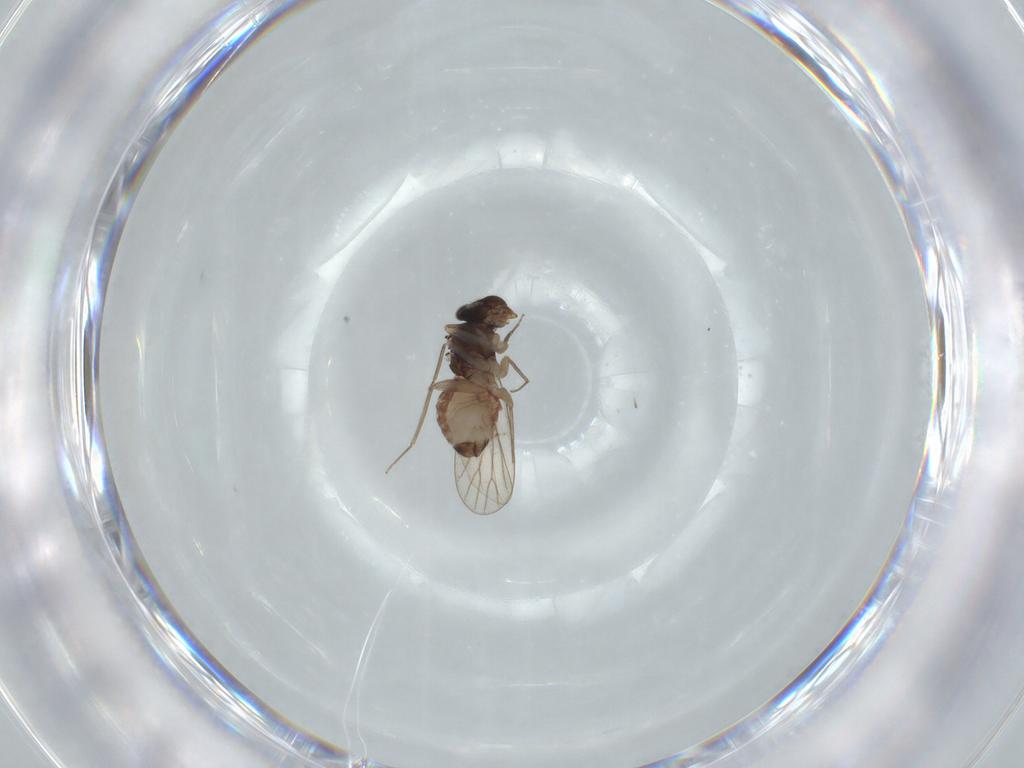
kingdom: Animalia
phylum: Arthropoda
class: Insecta
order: Psocodea
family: Psoquillidae
